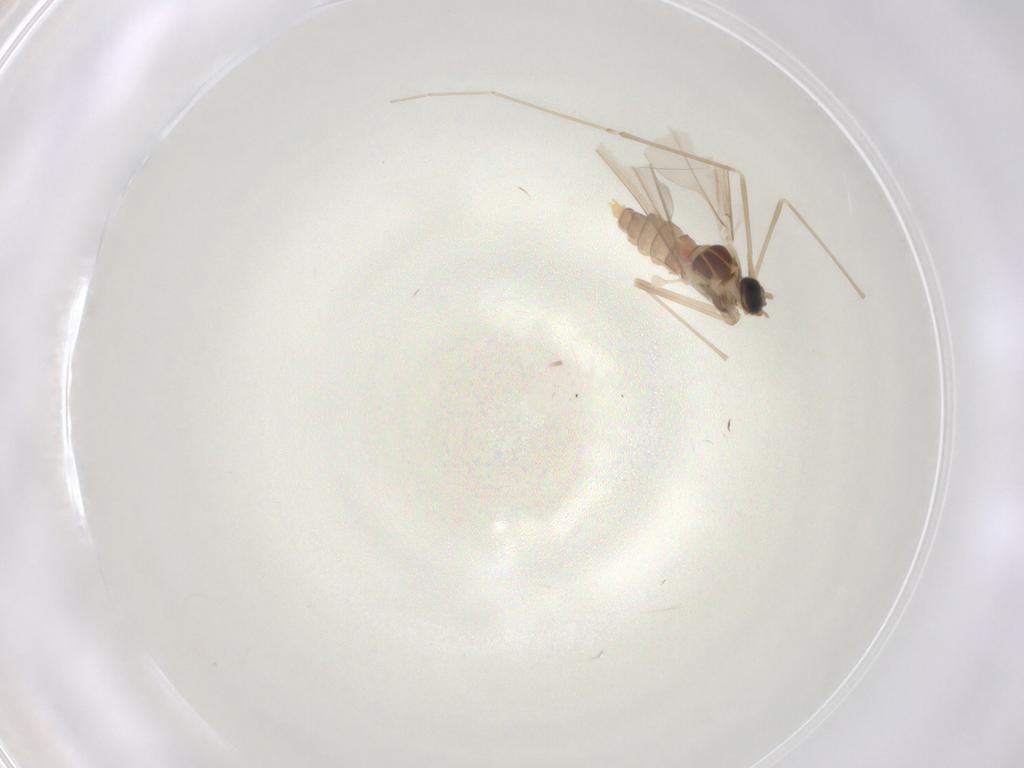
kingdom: Animalia
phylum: Arthropoda
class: Insecta
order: Diptera
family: Cecidomyiidae
